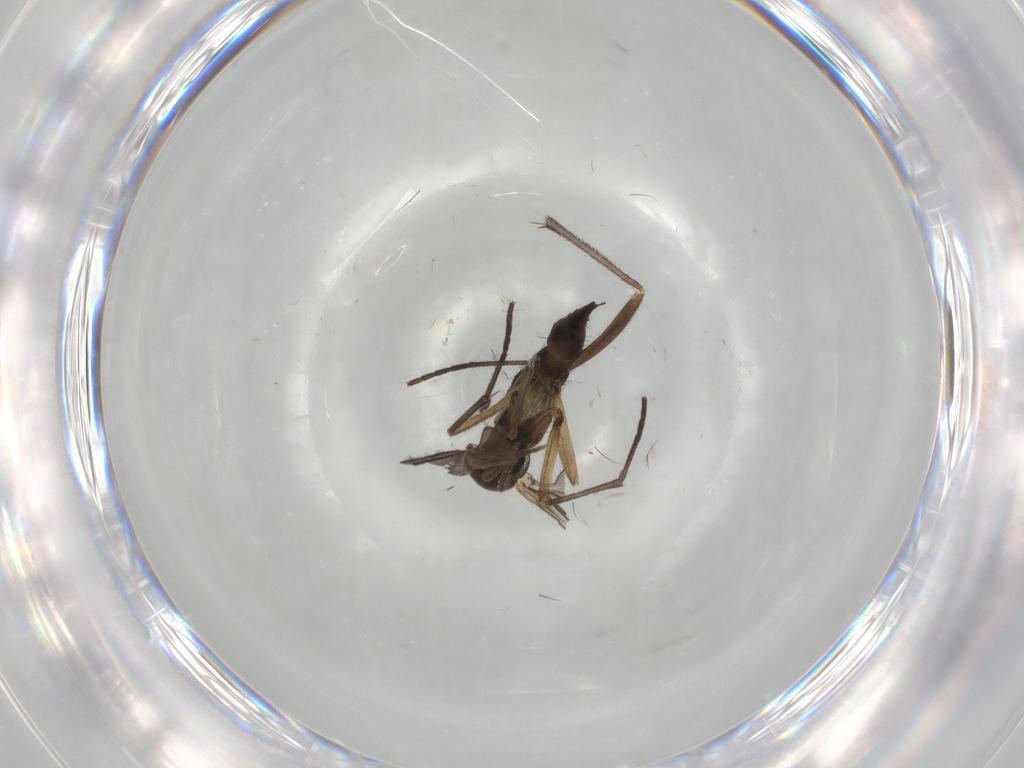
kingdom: Animalia
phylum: Arthropoda
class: Insecta
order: Diptera
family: Sciaridae
